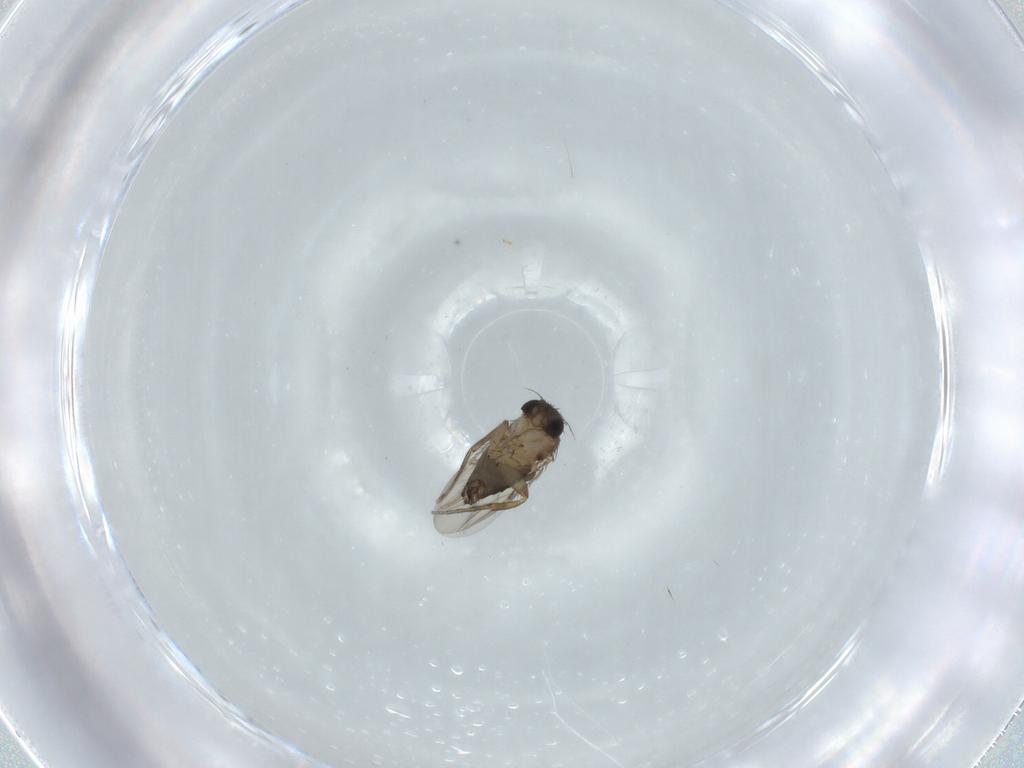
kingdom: Animalia
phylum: Arthropoda
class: Insecta
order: Diptera
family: Phoridae
